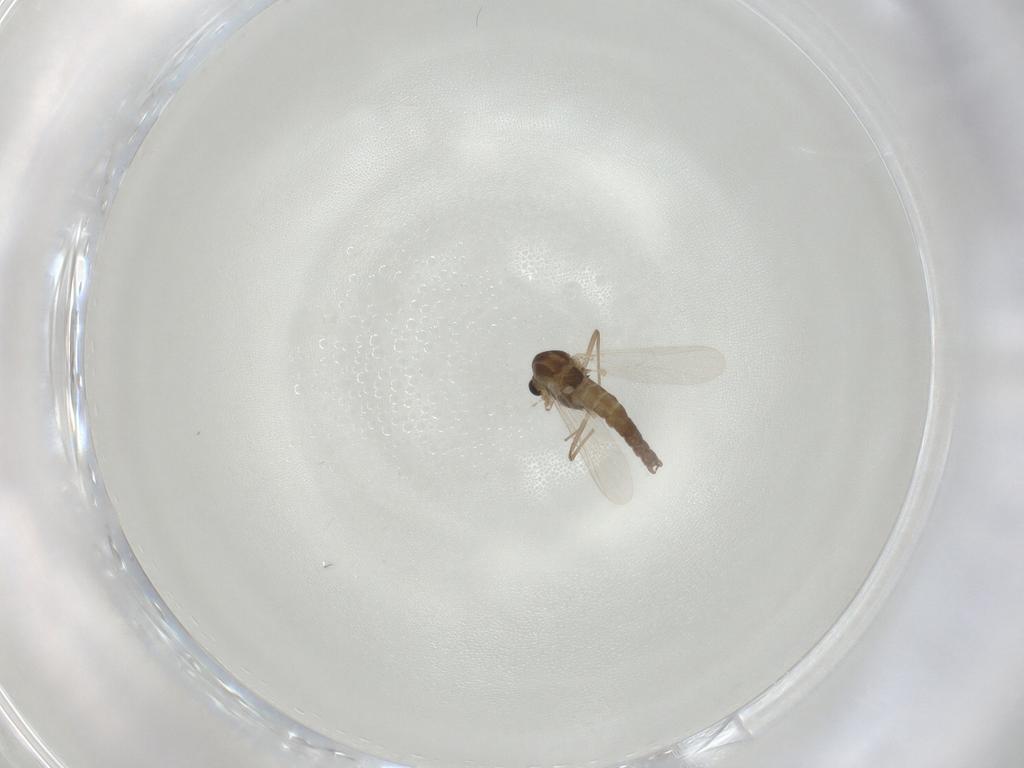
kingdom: Animalia
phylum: Arthropoda
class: Insecta
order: Diptera
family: Chironomidae
